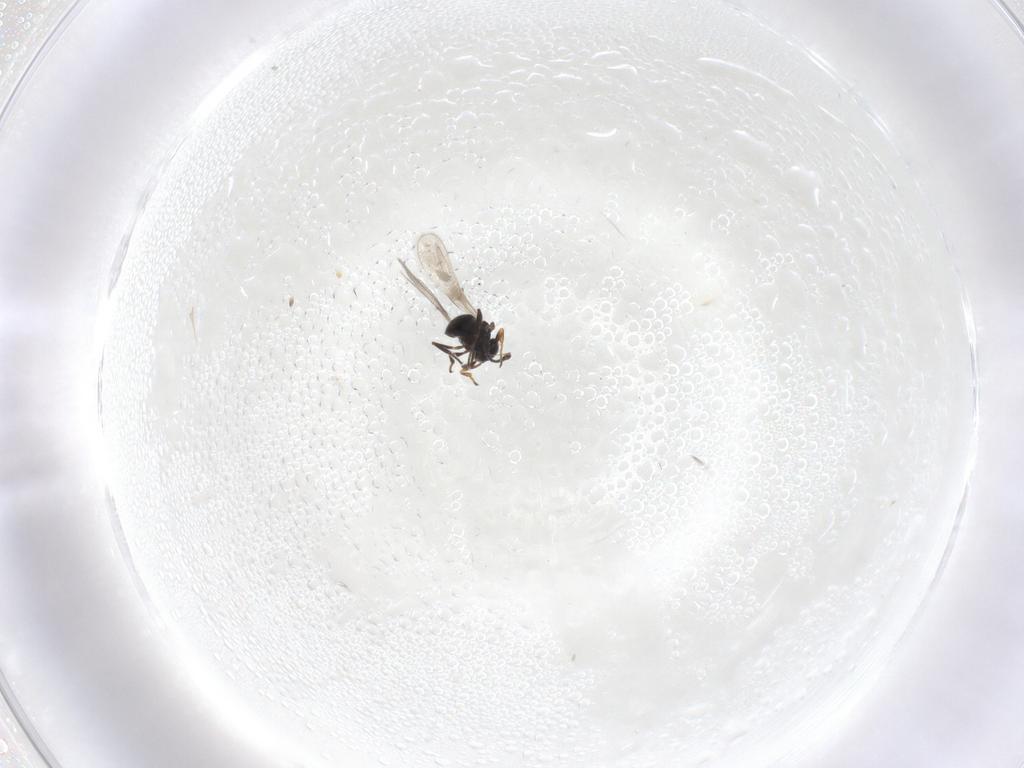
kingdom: Animalia
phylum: Arthropoda
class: Insecta
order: Hymenoptera
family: Platygastridae
